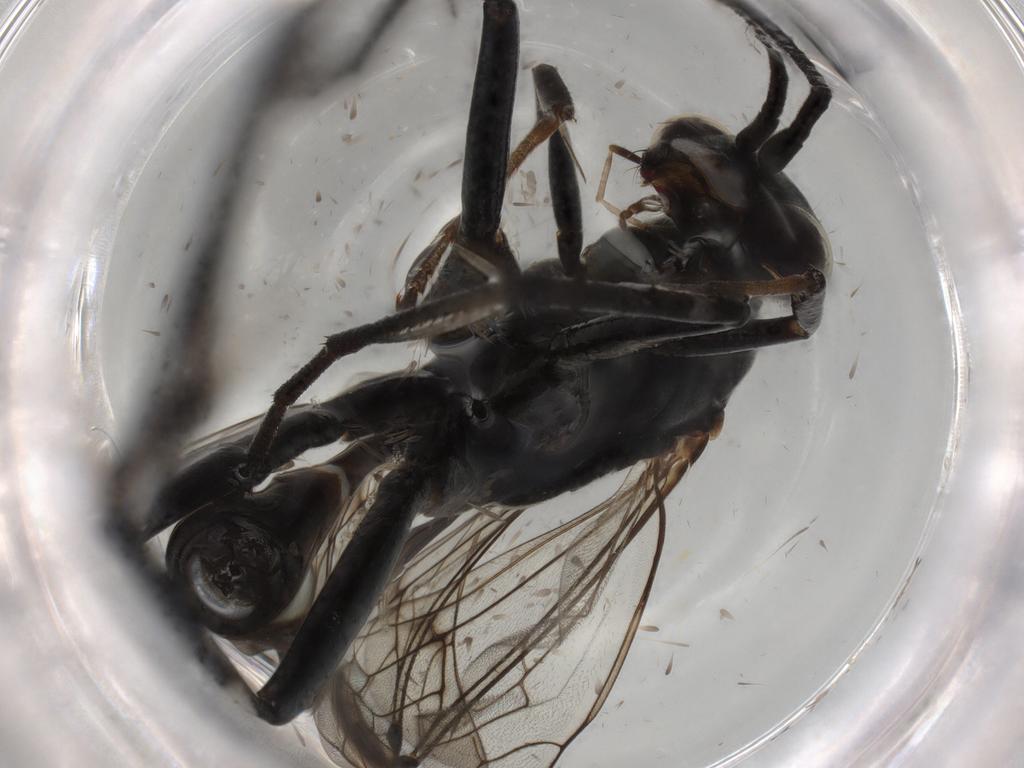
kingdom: Animalia
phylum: Arthropoda
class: Insecta
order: Hymenoptera
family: Pompilidae
